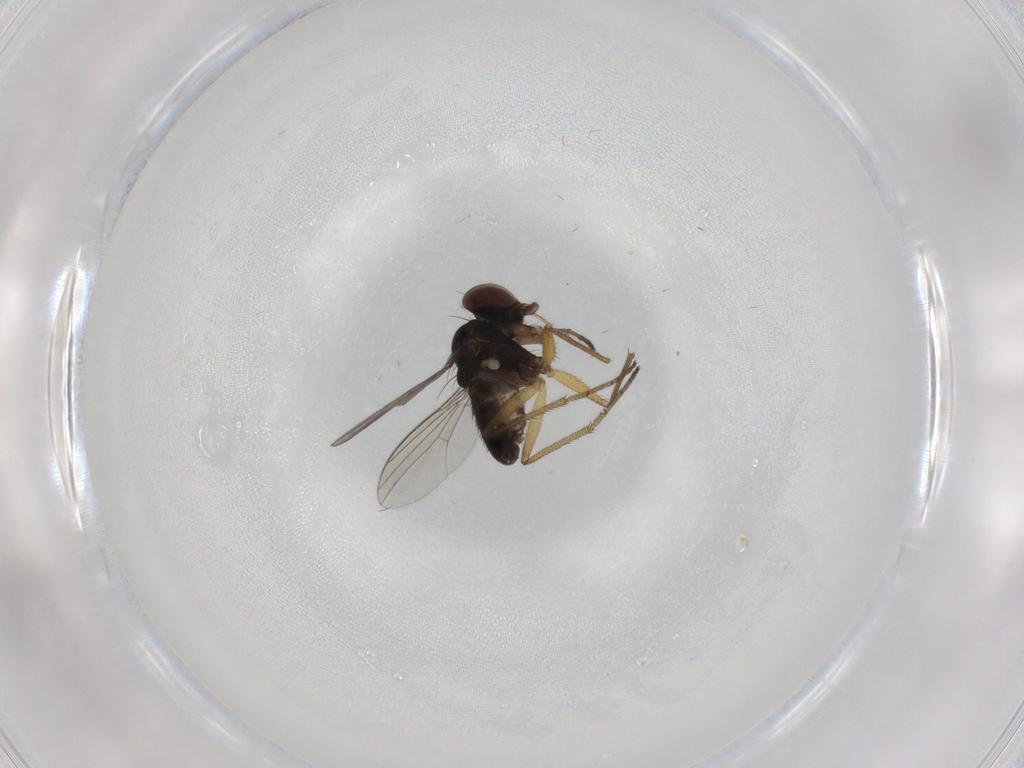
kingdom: Animalia
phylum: Arthropoda
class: Insecta
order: Diptera
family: Dolichopodidae
